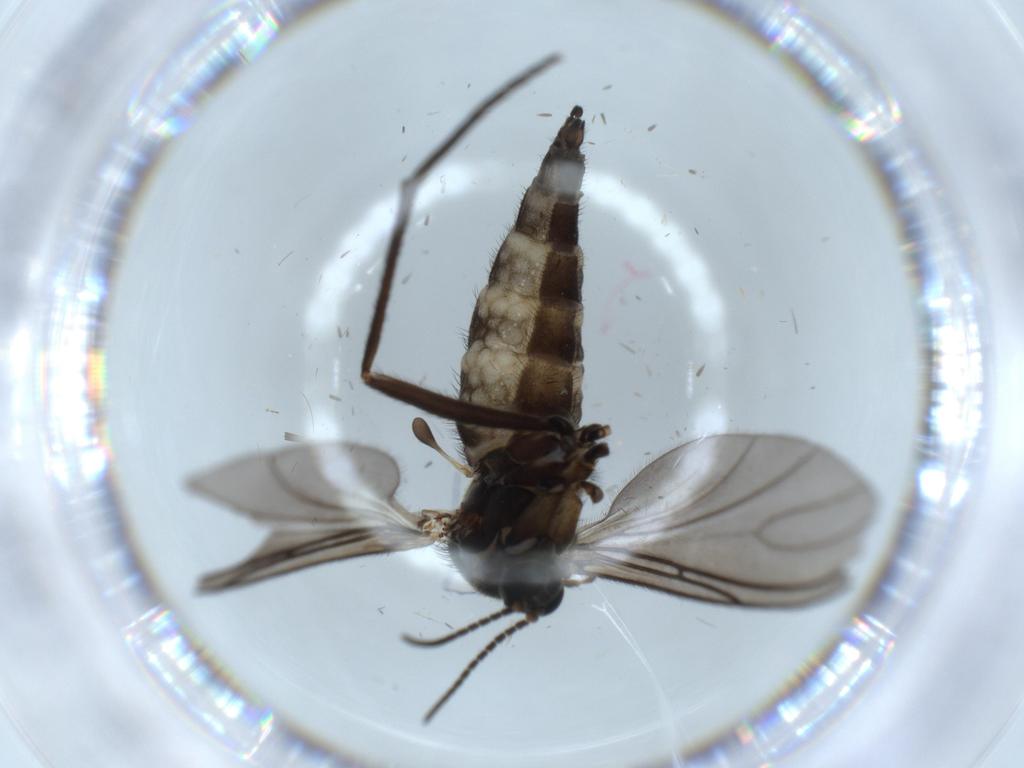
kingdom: Animalia
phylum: Arthropoda
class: Insecta
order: Diptera
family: Sciaridae
